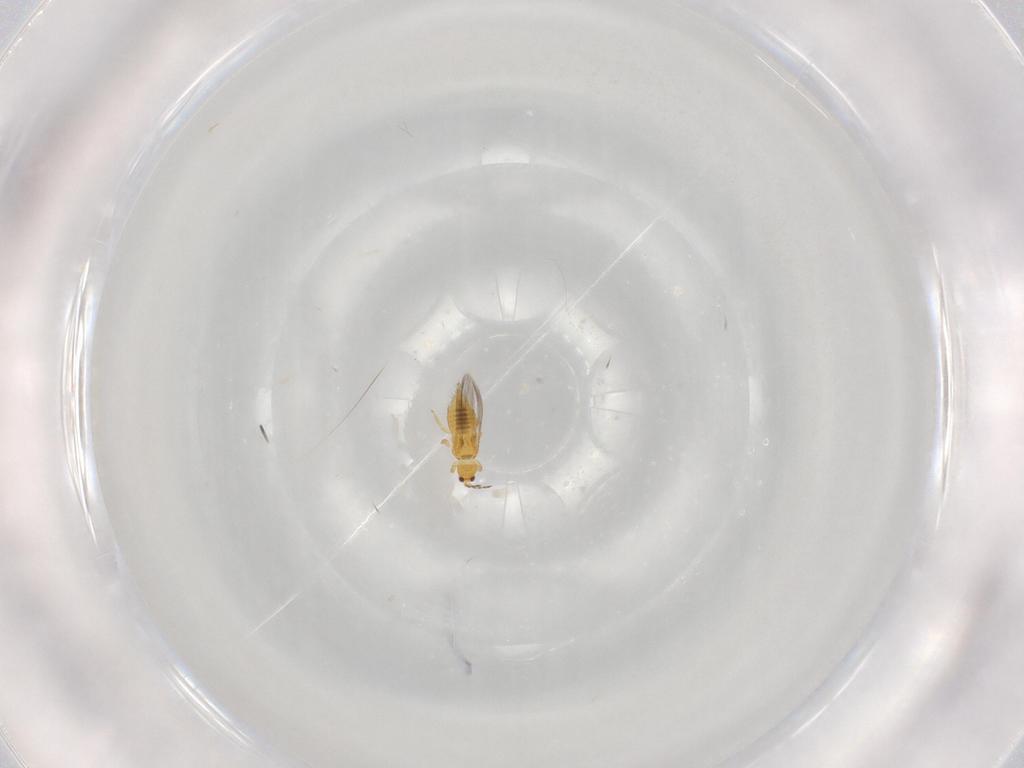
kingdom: Animalia
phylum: Arthropoda
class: Insecta
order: Thysanoptera
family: Thripidae
